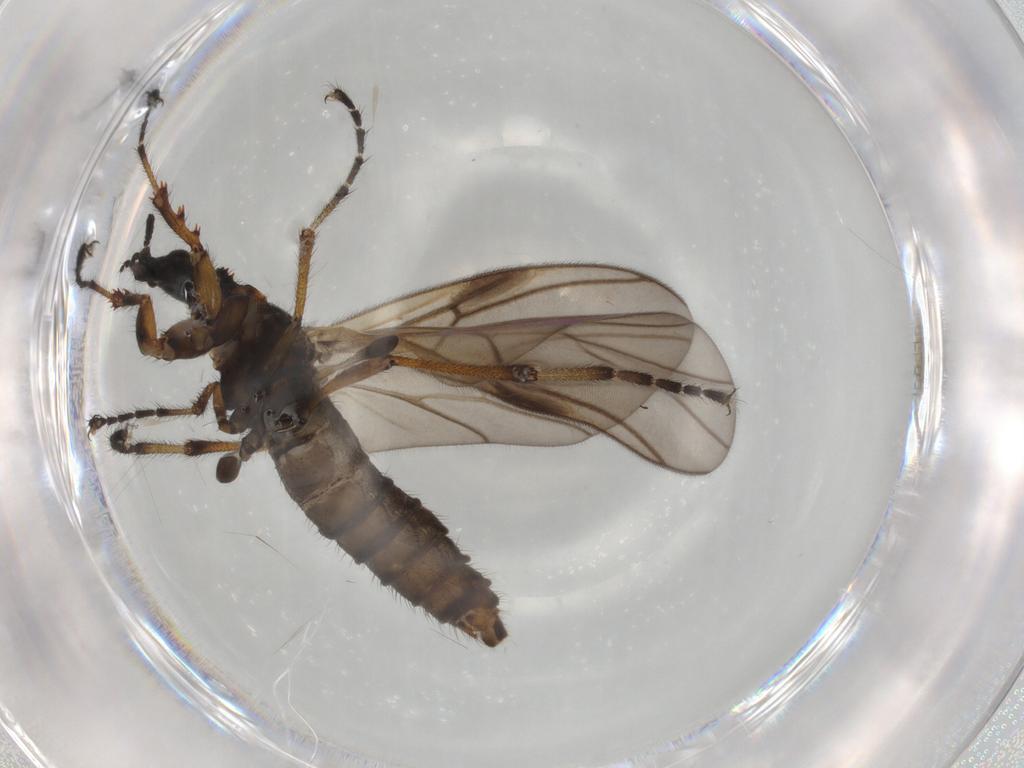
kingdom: Animalia
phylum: Arthropoda
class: Insecta
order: Diptera
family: Bibionidae
